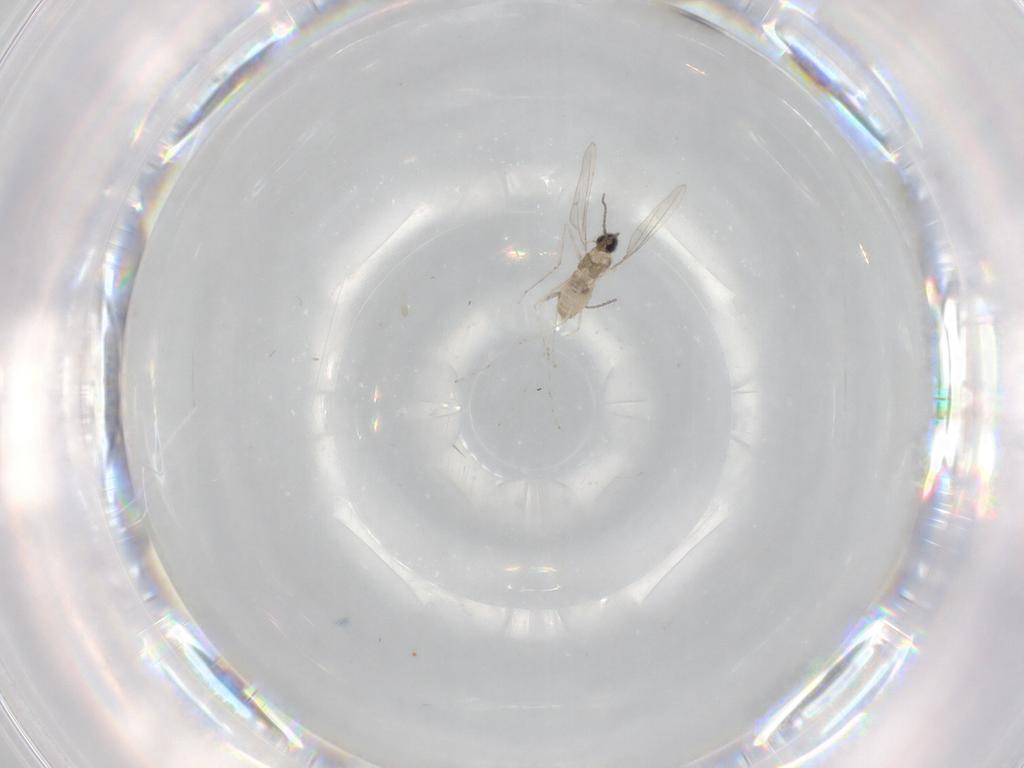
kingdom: Animalia
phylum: Arthropoda
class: Insecta
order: Diptera
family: Cecidomyiidae
